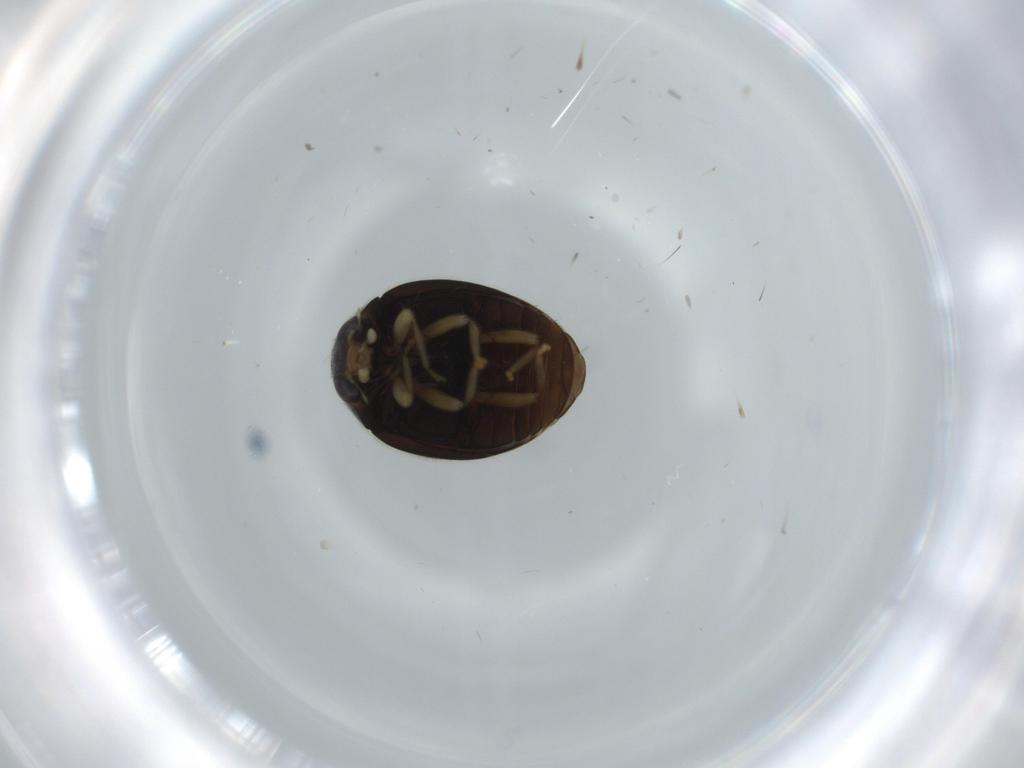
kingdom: Animalia
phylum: Arthropoda
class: Insecta
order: Coleoptera
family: Coccinellidae
